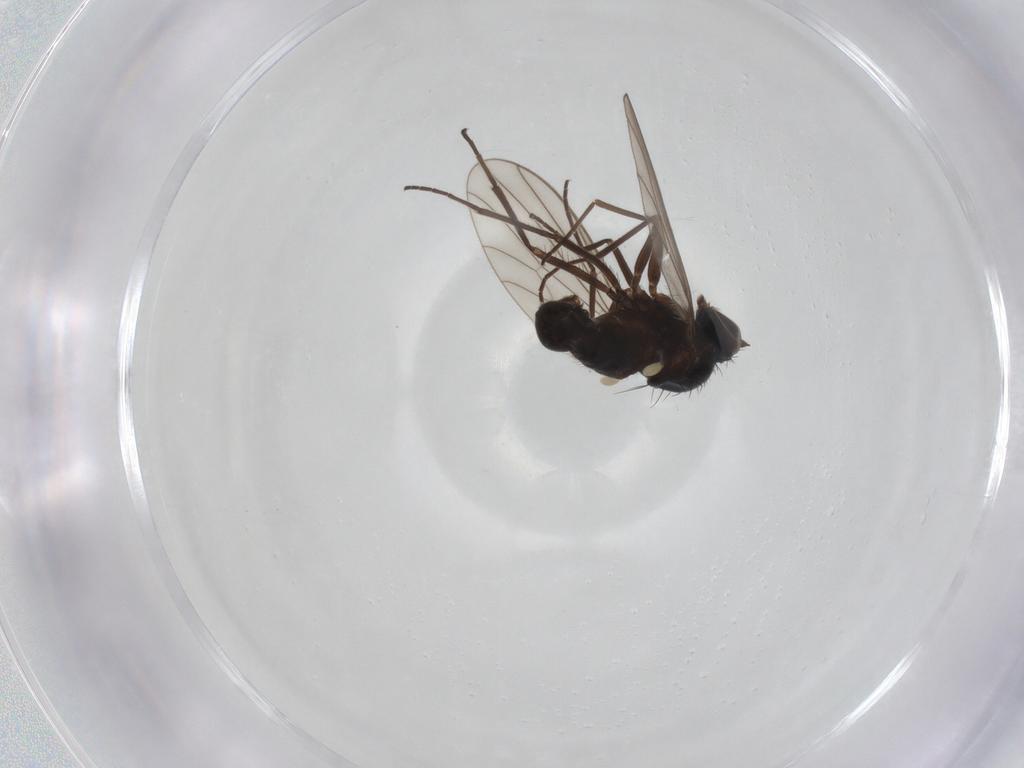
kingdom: Animalia
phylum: Arthropoda
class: Insecta
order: Diptera
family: Dolichopodidae
